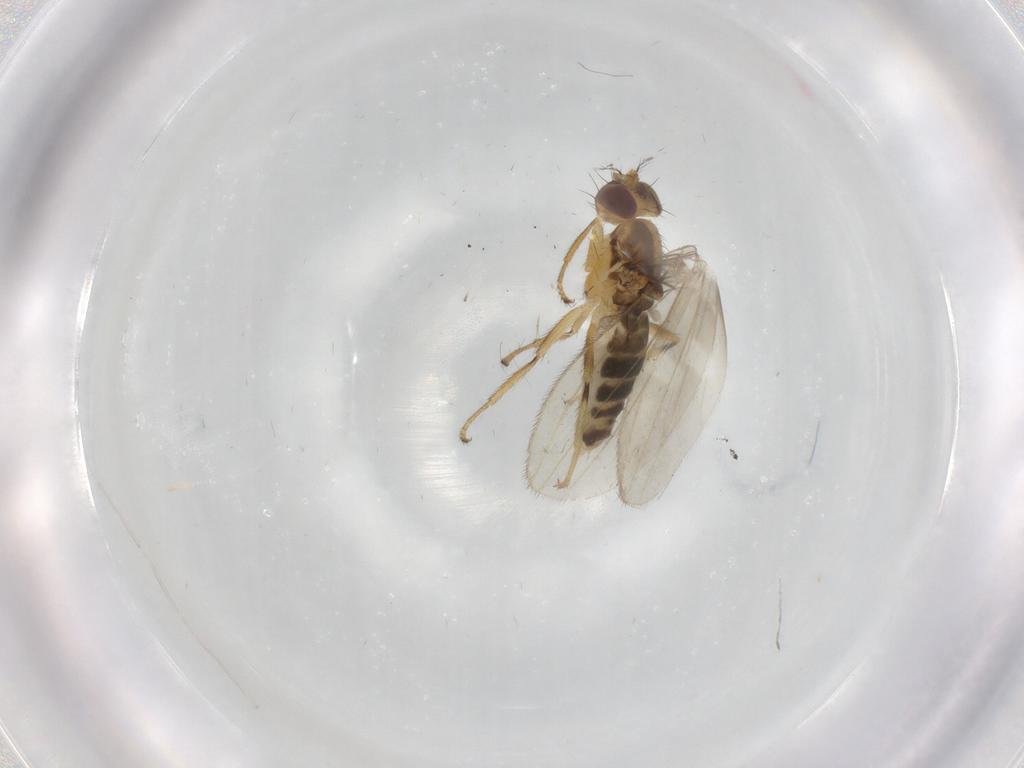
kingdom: Animalia
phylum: Arthropoda
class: Insecta
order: Diptera
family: Periscelididae
